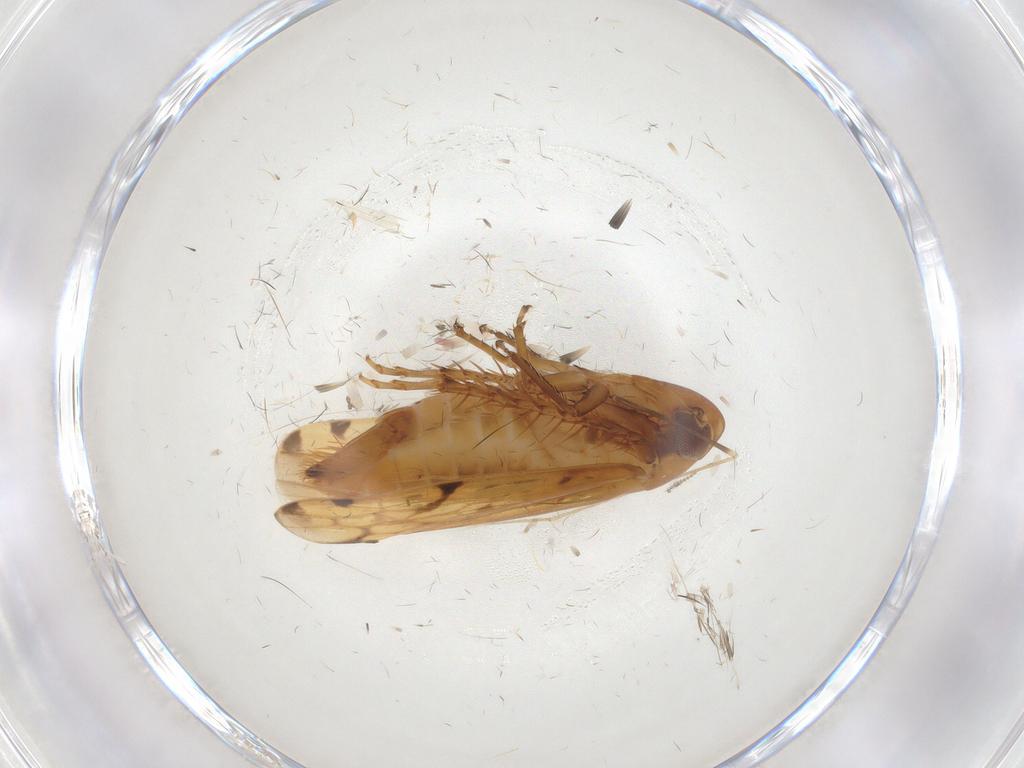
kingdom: Animalia
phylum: Arthropoda
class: Insecta
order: Hemiptera
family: Cicadellidae
